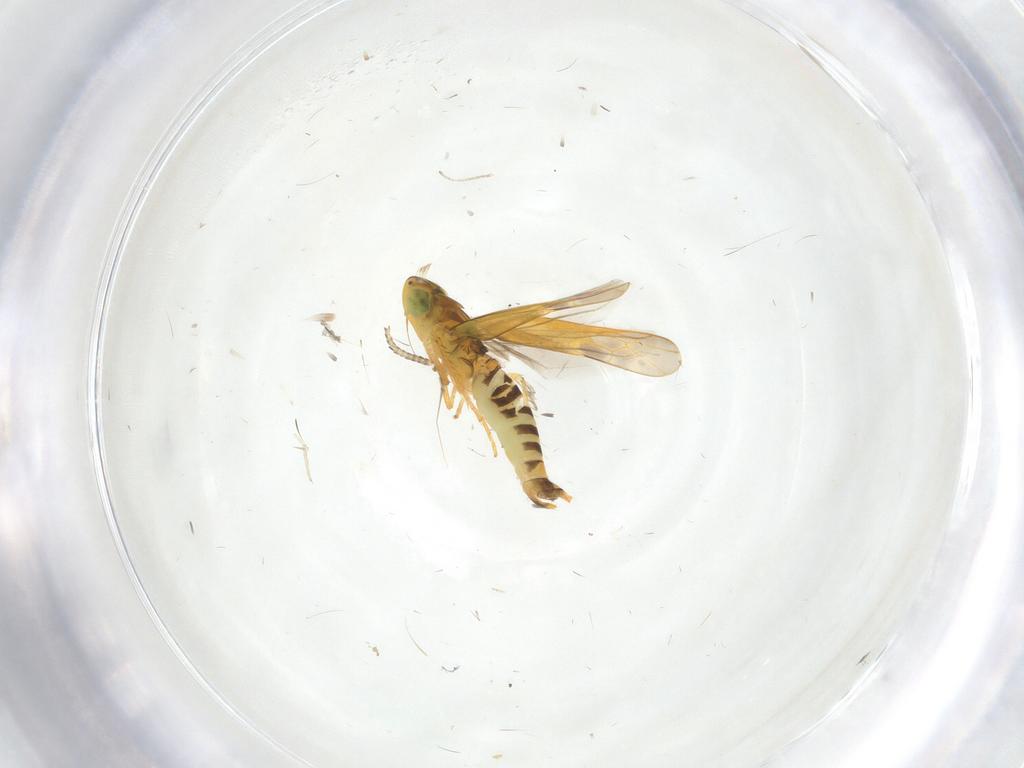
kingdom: Animalia
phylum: Arthropoda
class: Insecta
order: Hemiptera
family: Cicadellidae
